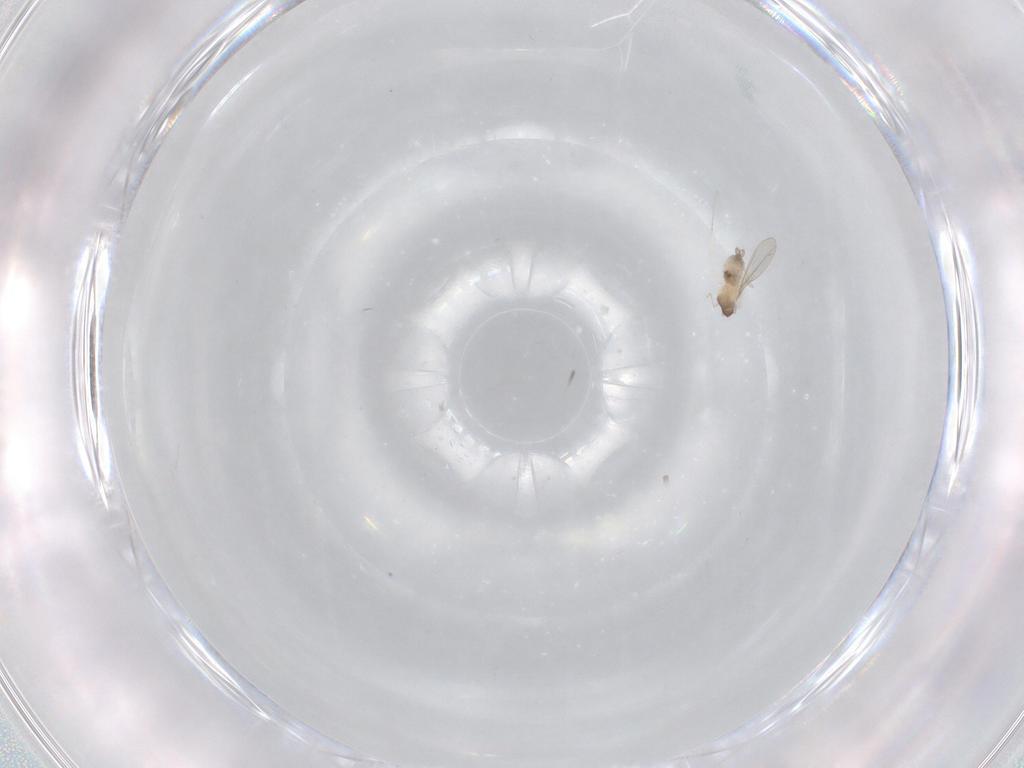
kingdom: Animalia
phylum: Arthropoda
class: Insecta
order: Diptera
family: Cecidomyiidae
